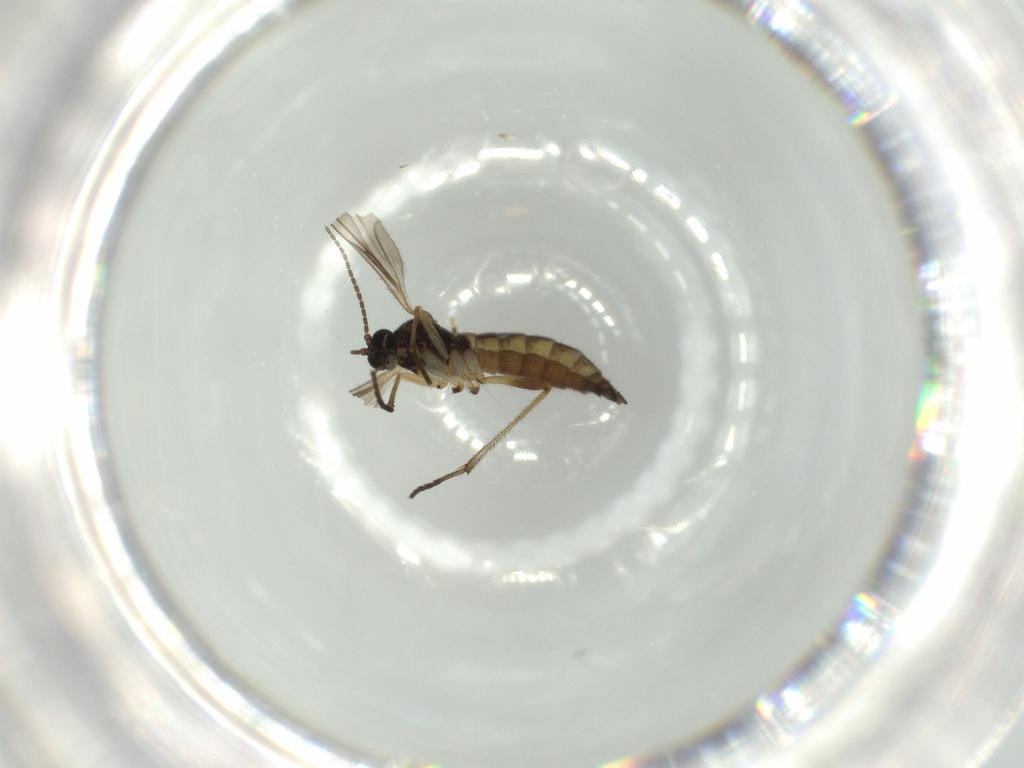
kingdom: Animalia
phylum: Arthropoda
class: Insecta
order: Diptera
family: Sciaridae
